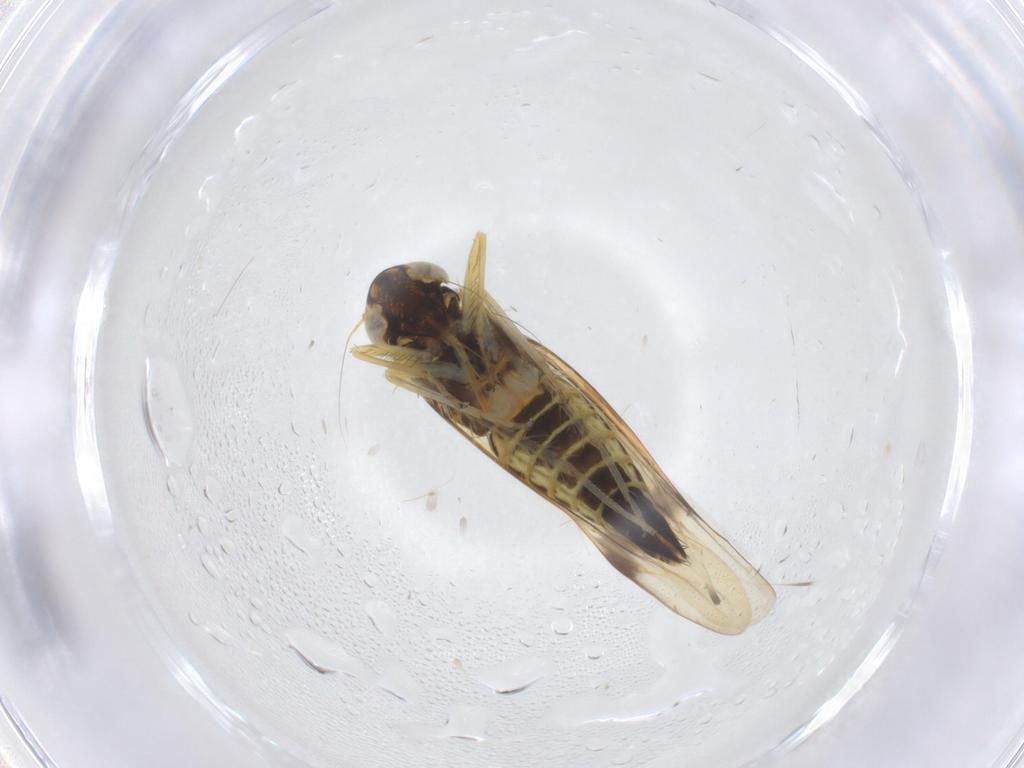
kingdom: Animalia
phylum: Arthropoda
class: Insecta
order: Hemiptera
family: Cicadellidae
